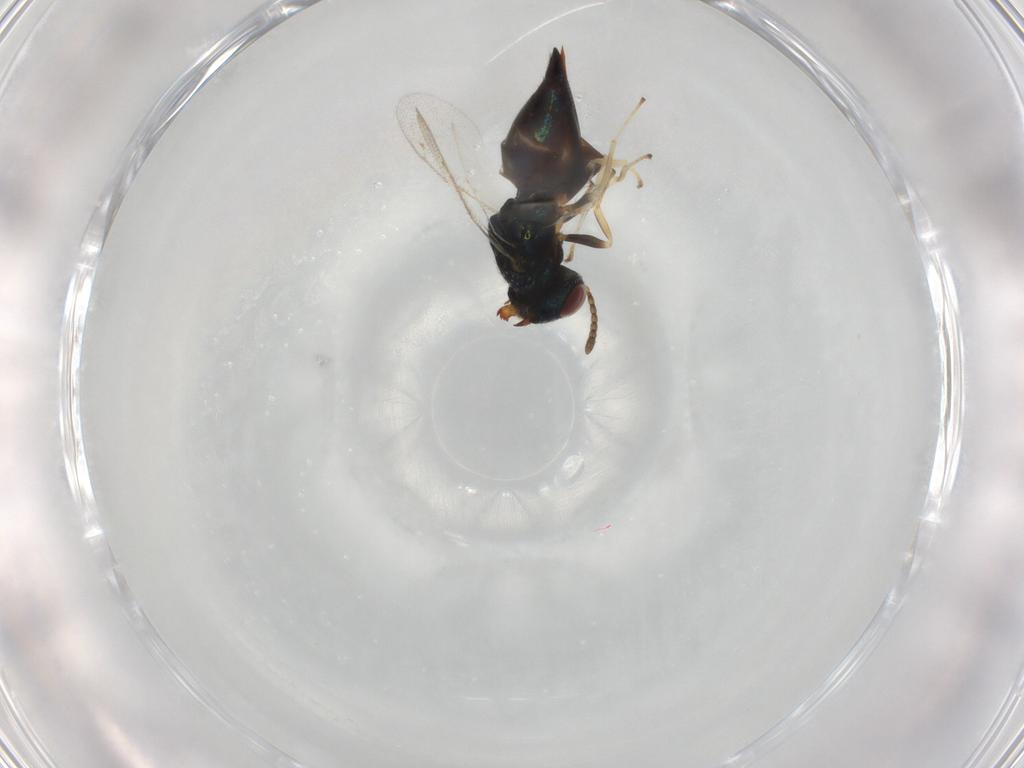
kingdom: Animalia
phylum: Arthropoda
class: Insecta
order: Hymenoptera
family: Pteromalidae
